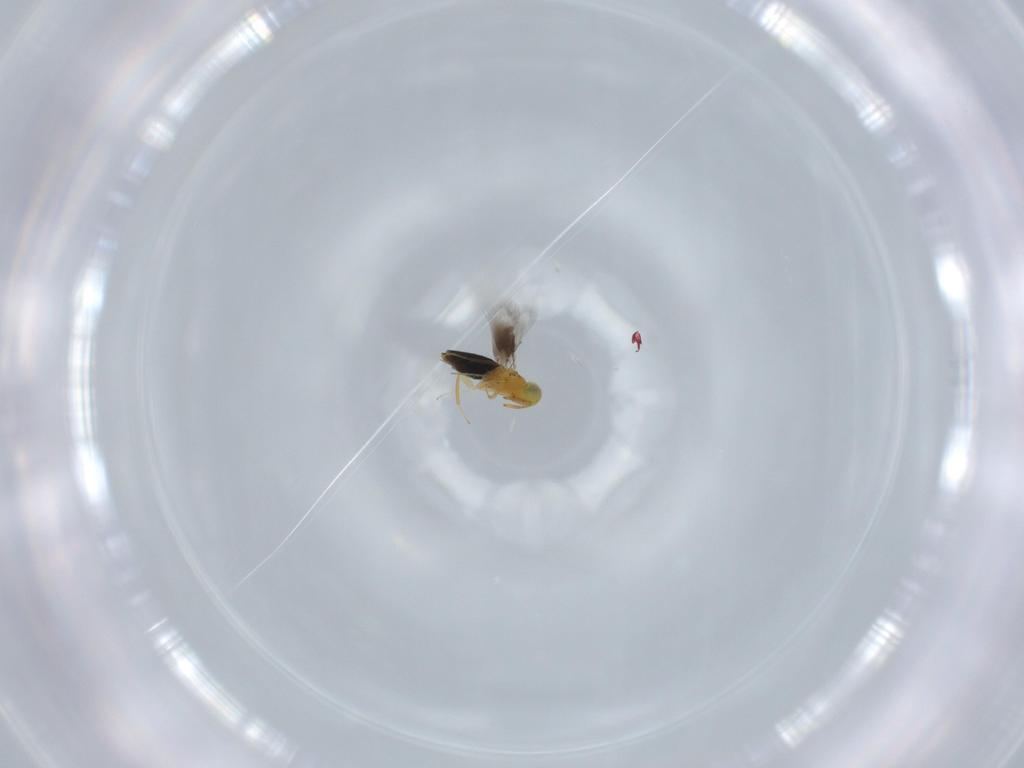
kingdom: Animalia
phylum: Arthropoda
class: Insecta
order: Hymenoptera
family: Signiphoridae
